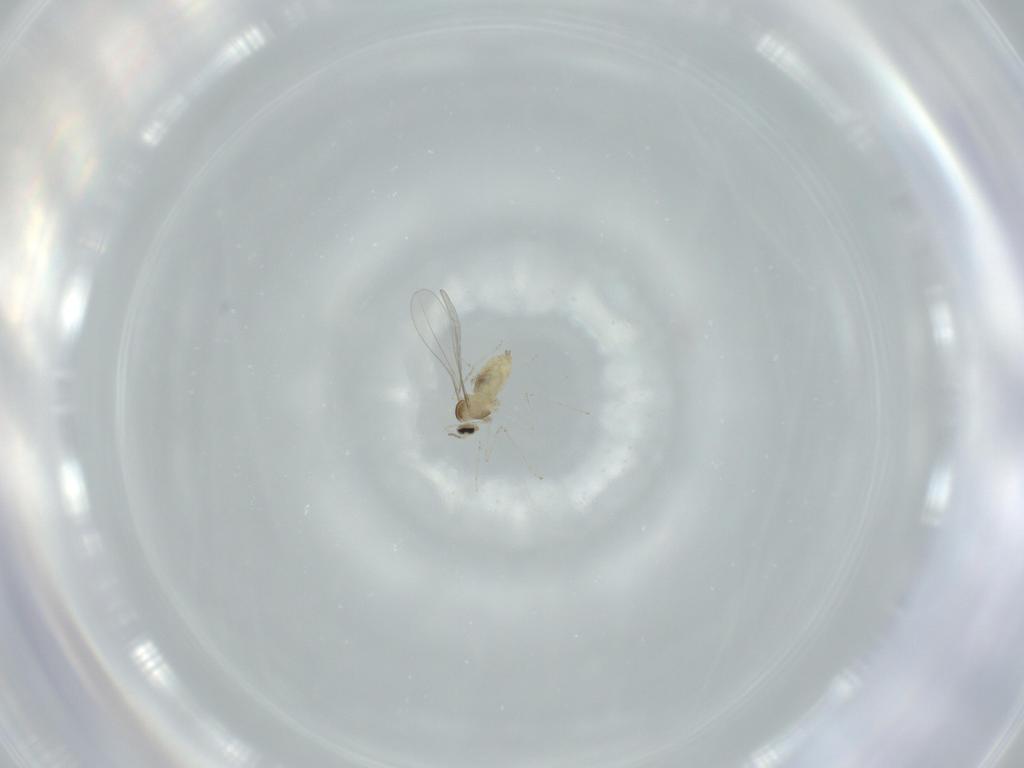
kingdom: Animalia
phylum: Arthropoda
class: Insecta
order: Diptera
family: Cecidomyiidae
